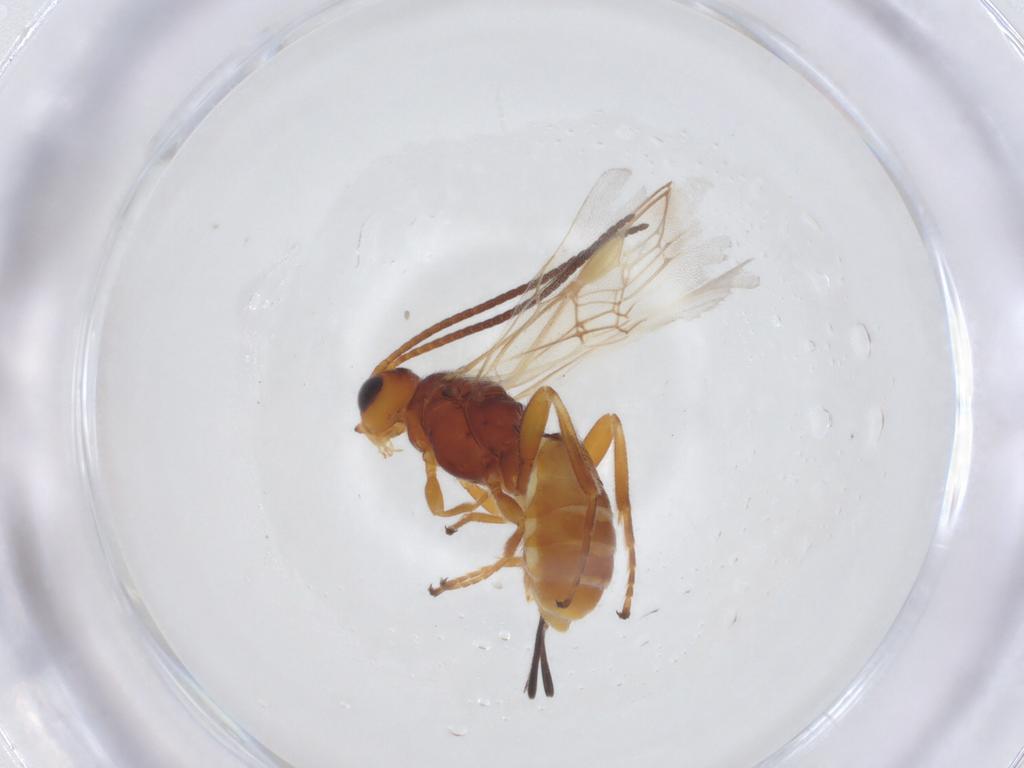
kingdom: Animalia
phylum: Arthropoda
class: Insecta
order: Hymenoptera
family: Braconidae
